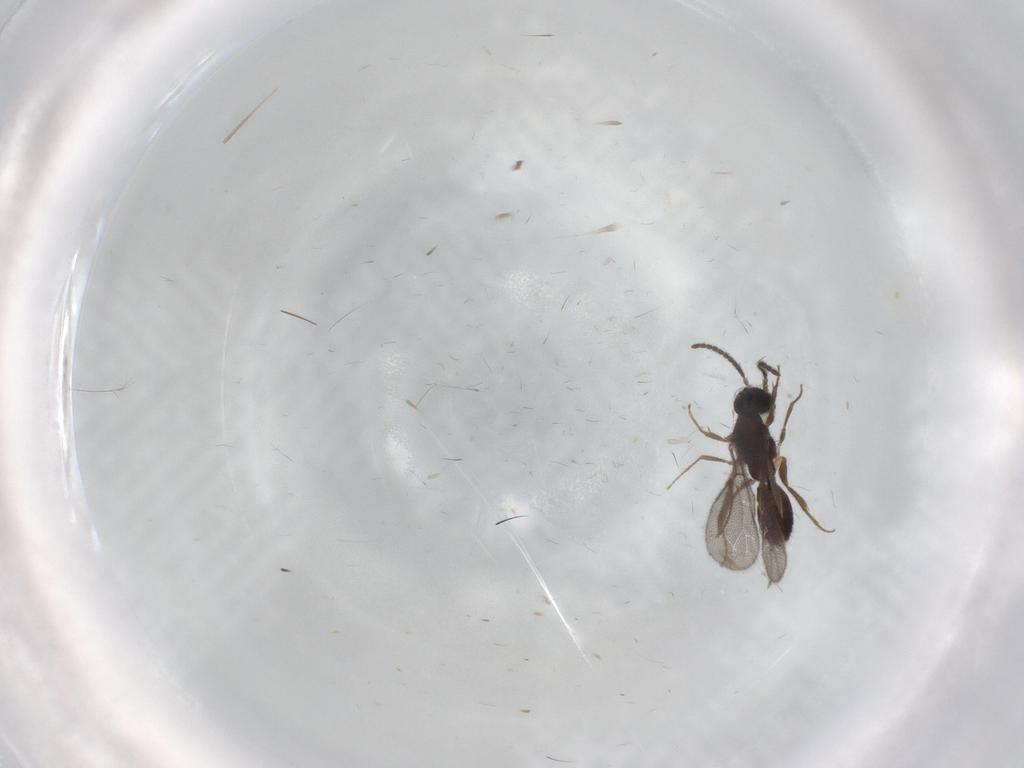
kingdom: Animalia
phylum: Arthropoda
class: Insecta
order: Hymenoptera
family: Bethylidae
